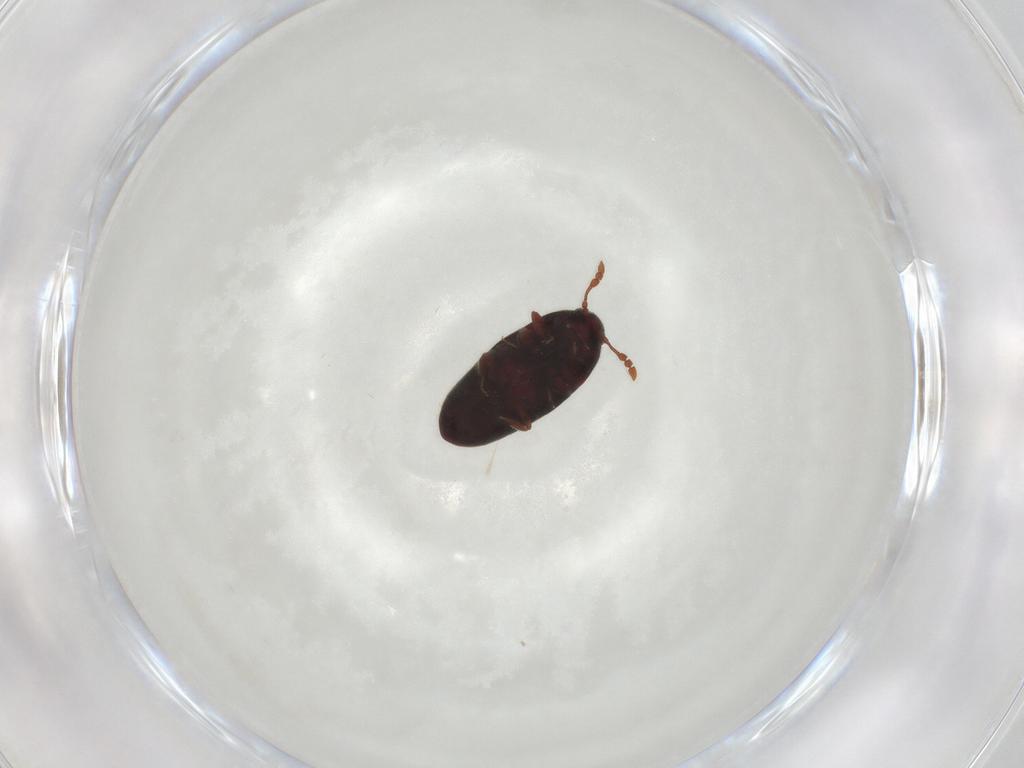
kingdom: Animalia
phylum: Arthropoda
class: Insecta
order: Coleoptera
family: Throscidae
